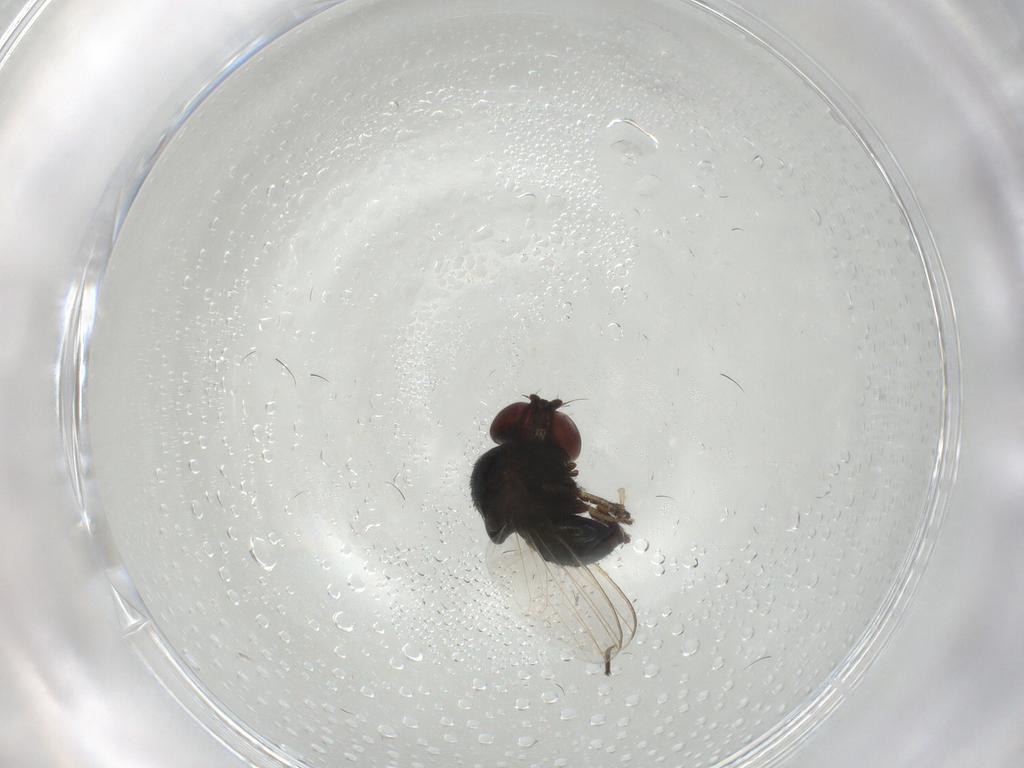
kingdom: Animalia
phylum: Arthropoda
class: Insecta
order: Diptera
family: Milichiidae
